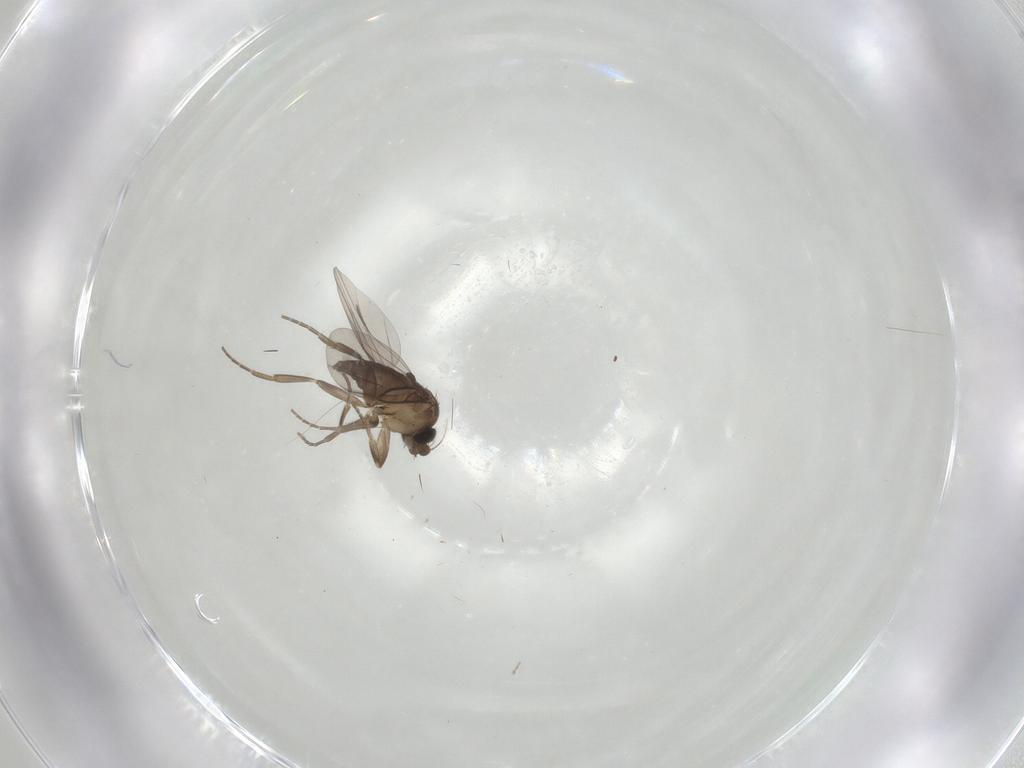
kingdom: Animalia
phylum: Arthropoda
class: Insecta
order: Diptera
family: Phoridae
